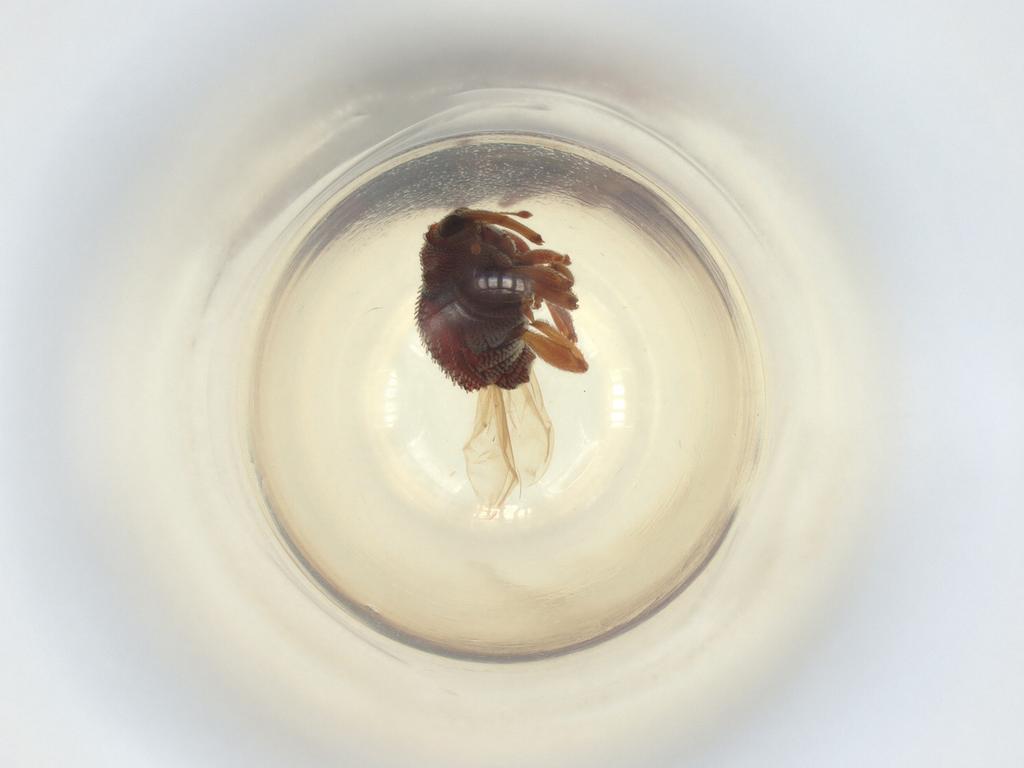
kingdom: Animalia
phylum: Arthropoda
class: Insecta
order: Coleoptera
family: Curculionidae
